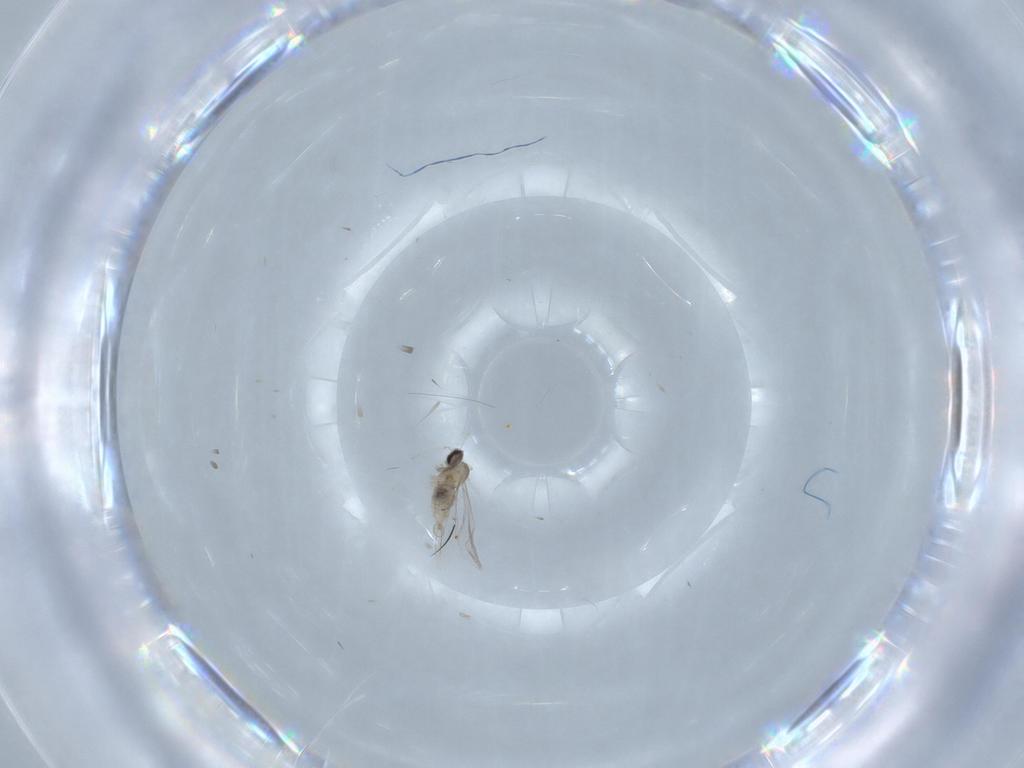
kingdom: Animalia
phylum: Arthropoda
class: Insecta
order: Diptera
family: Cecidomyiidae
